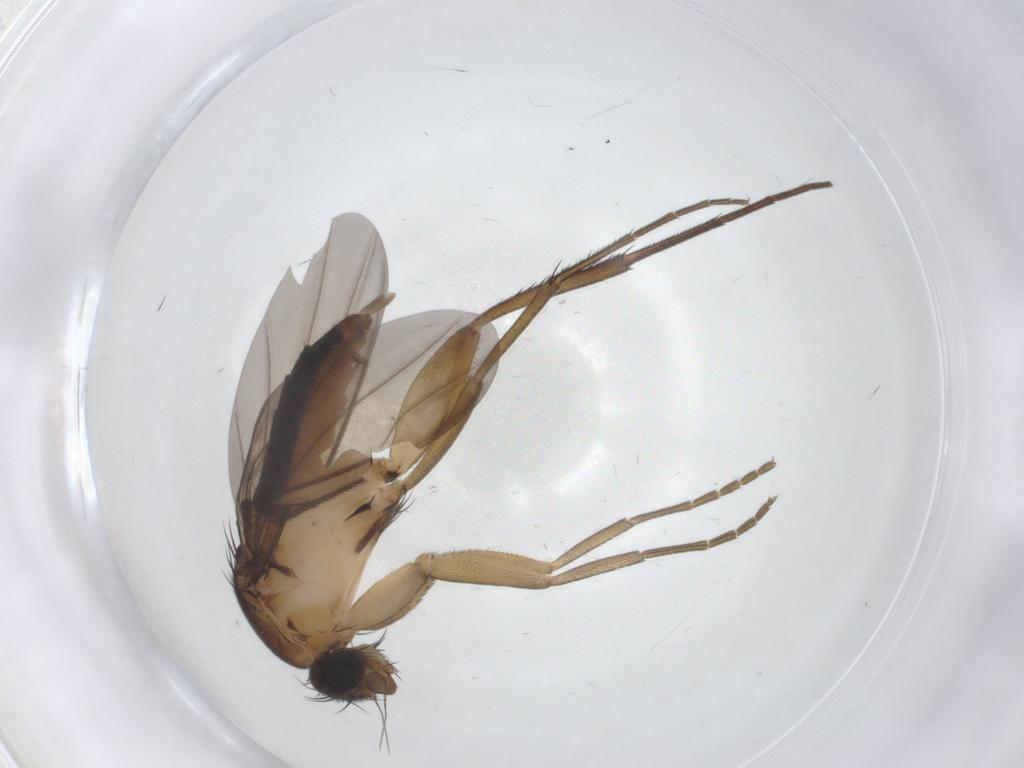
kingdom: Animalia
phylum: Arthropoda
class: Insecta
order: Diptera
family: Phoridae
